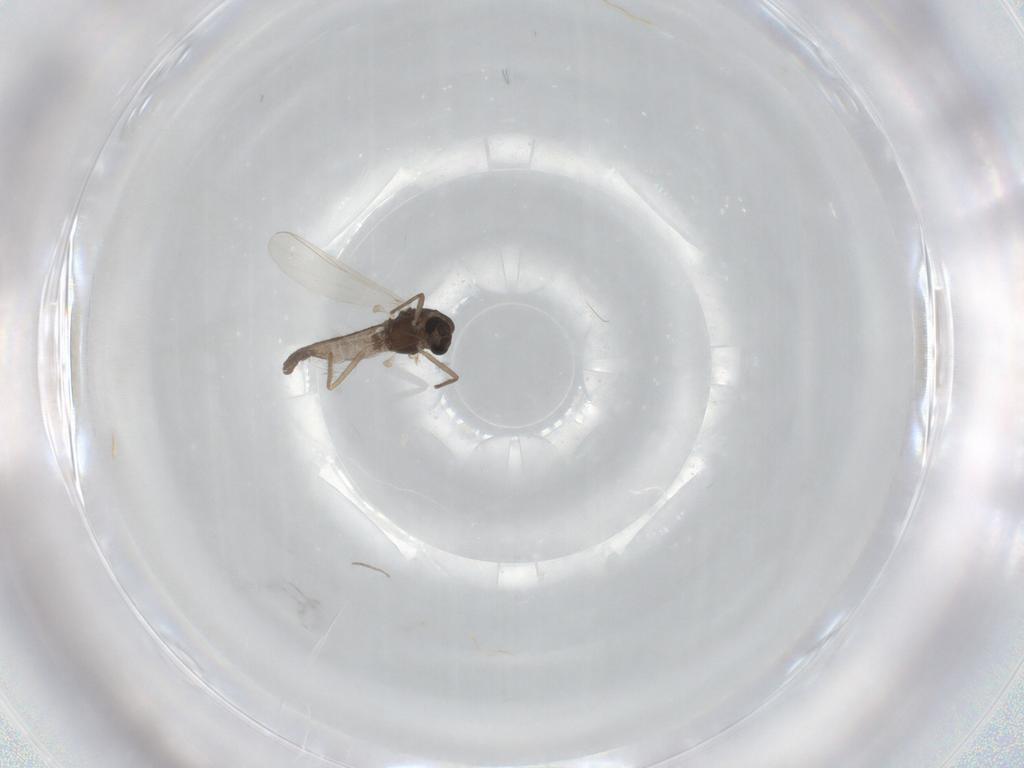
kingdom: Animalia
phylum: Arthropoda
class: Insecta
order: Diptera
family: Chironomidae
